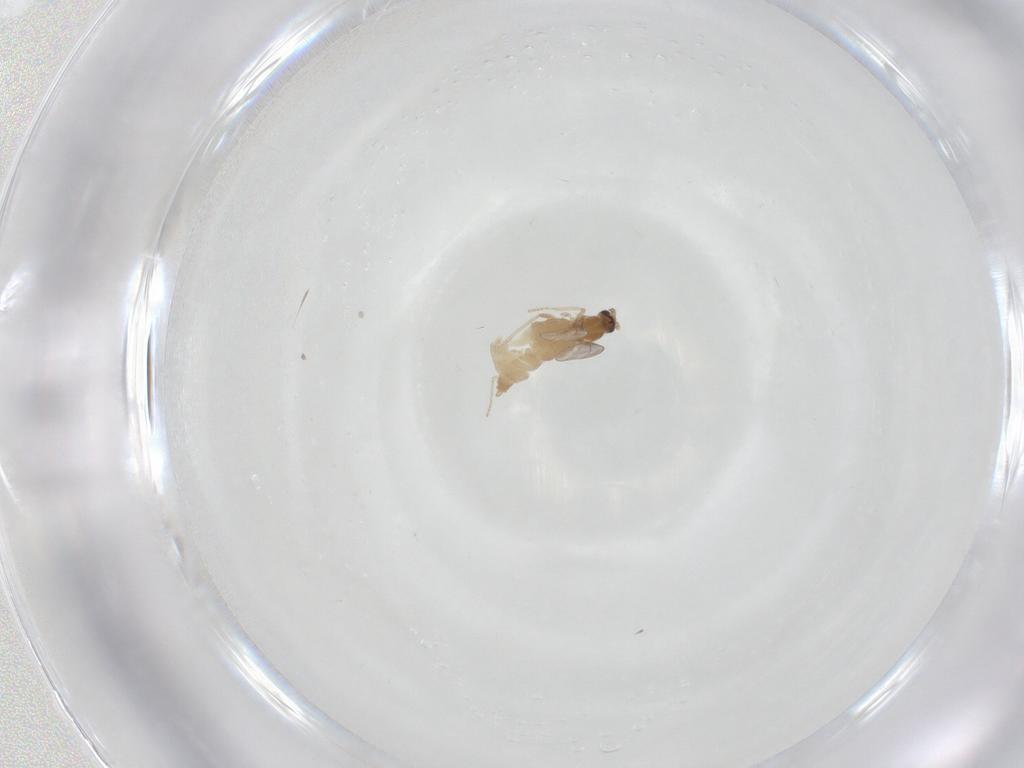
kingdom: Animalia
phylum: Arthropoda
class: Insecta
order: Diptera
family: Cecidomyiidae
